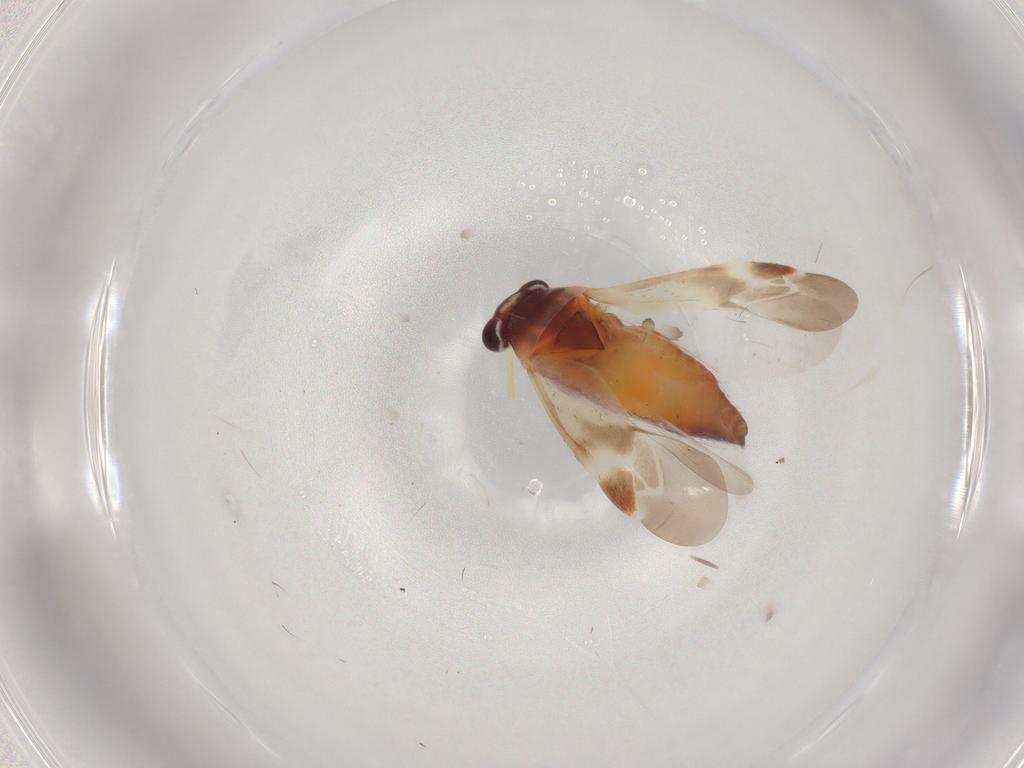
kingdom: Animalia
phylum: Arthropoda
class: Insecta
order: Hemiptera
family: Miridae
